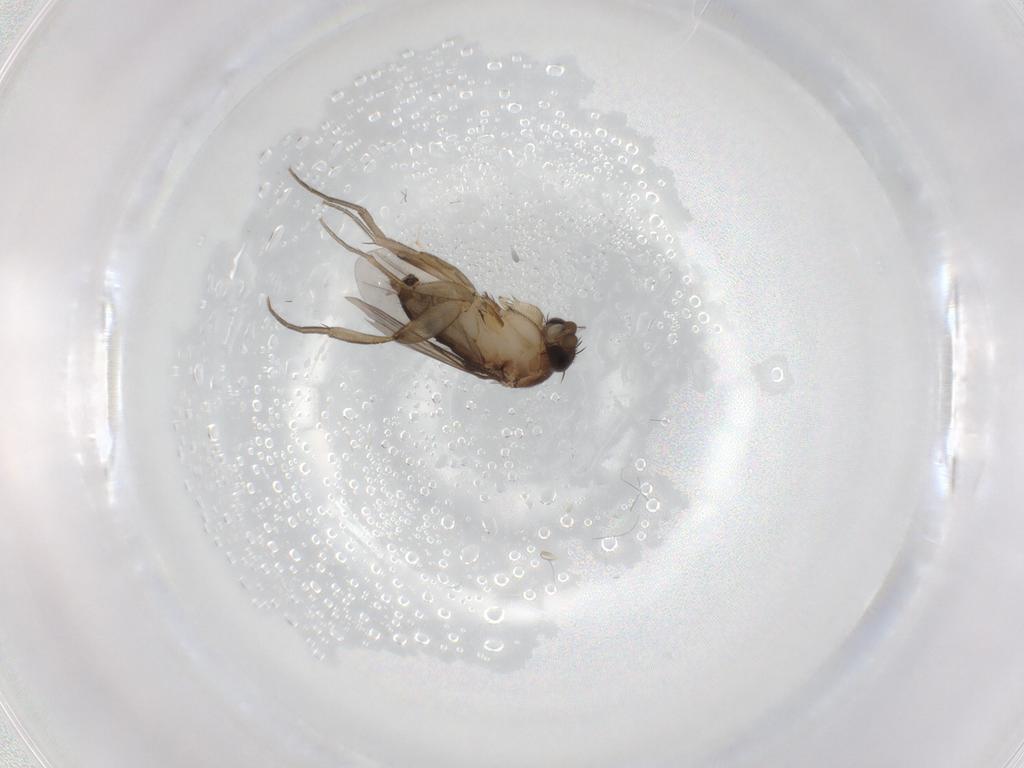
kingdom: Animalia
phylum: Arthropoda
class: Insecta
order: Diptera
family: Phoridae
